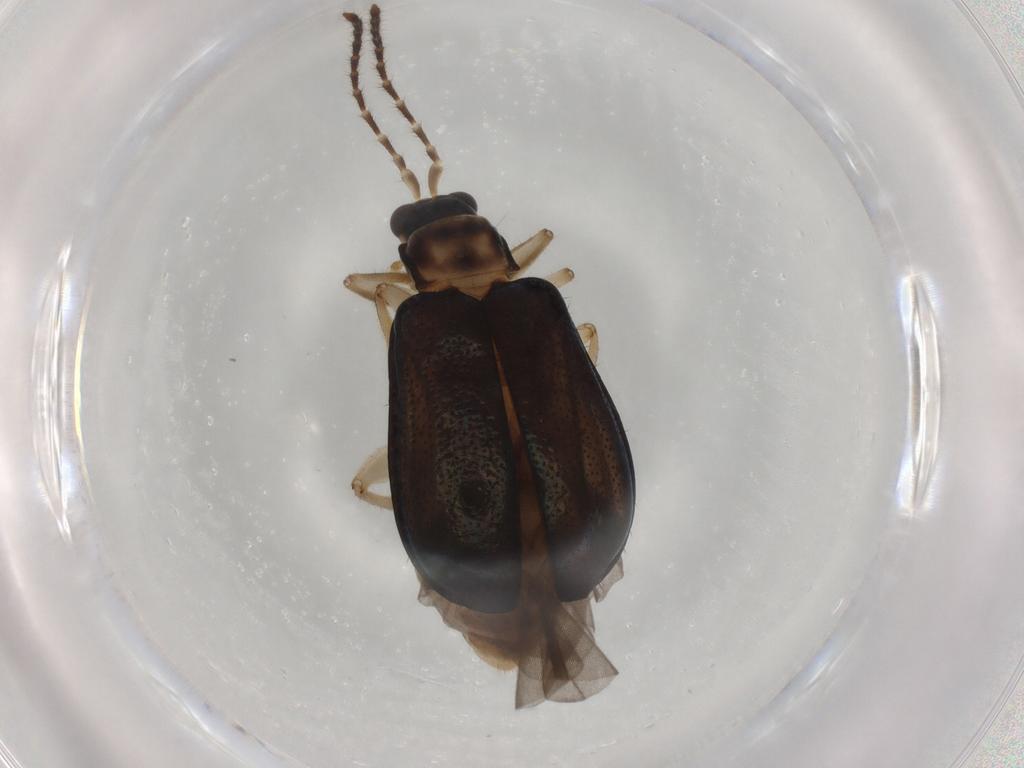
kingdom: Animalia
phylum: Arthropoda
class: Insecta
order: Coleoptera
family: Chrysomelidae
